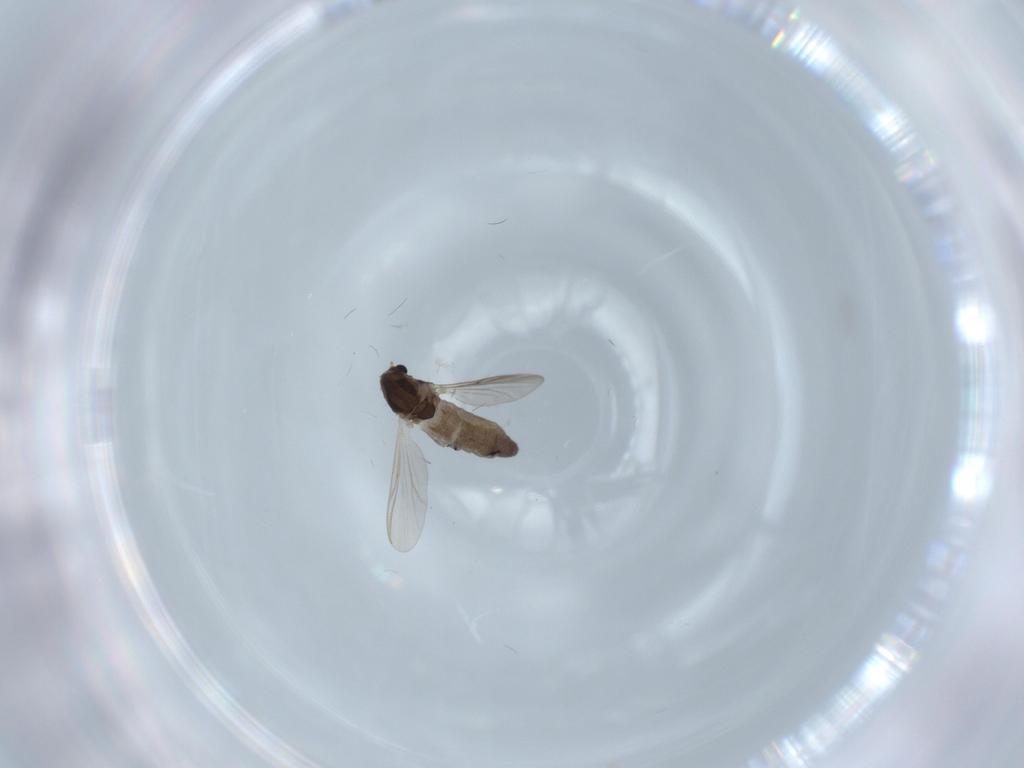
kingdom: Animalia
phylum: Arthropoda
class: Insecta
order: Diptera
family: Chironomidae
